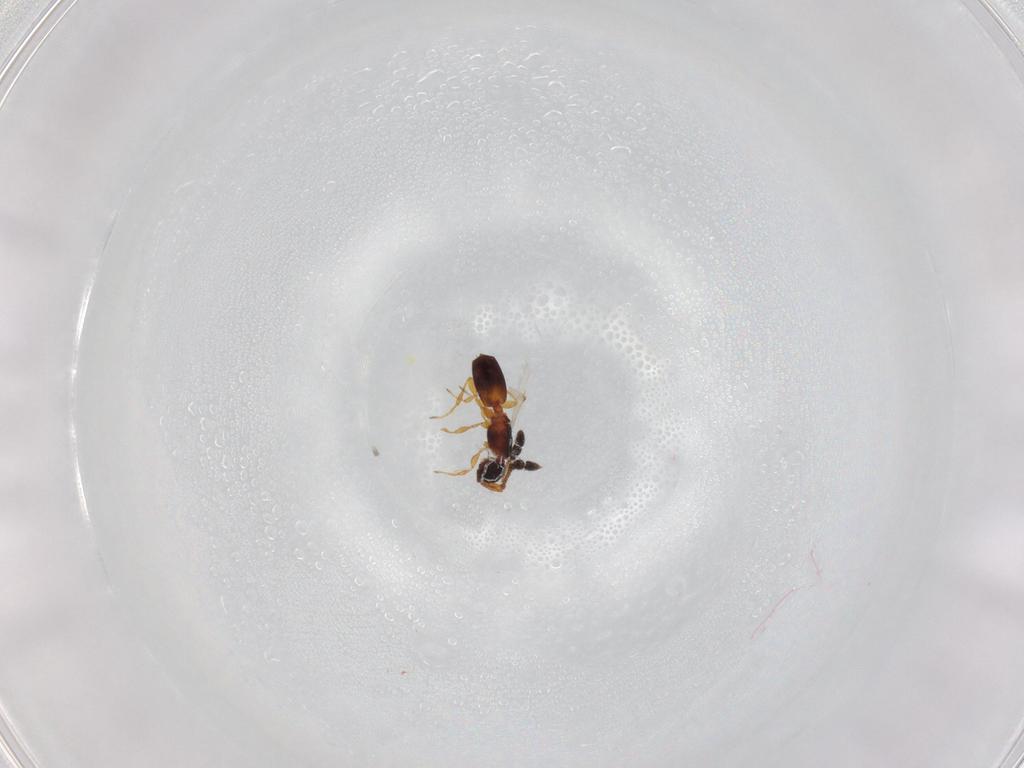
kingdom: Animalia
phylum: Arthropoda
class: Insecta
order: Hymenoptera
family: Diapriidae
